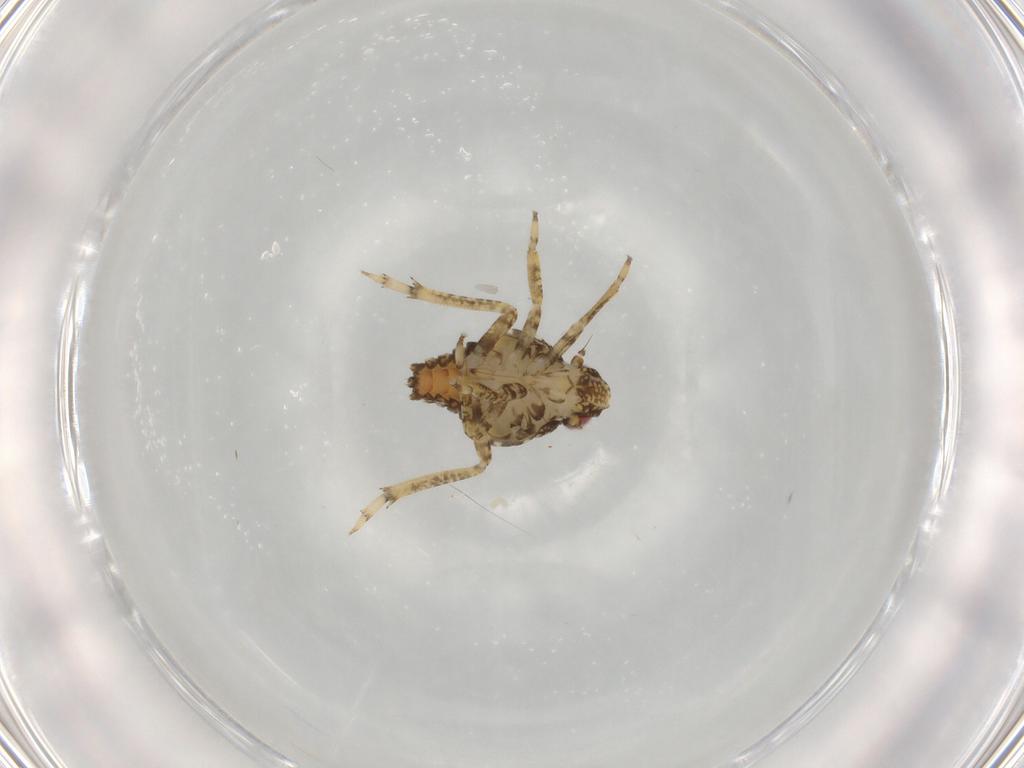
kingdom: Animalia
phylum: Arthropoda
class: Insecta
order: Hemiptera
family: Issidae
